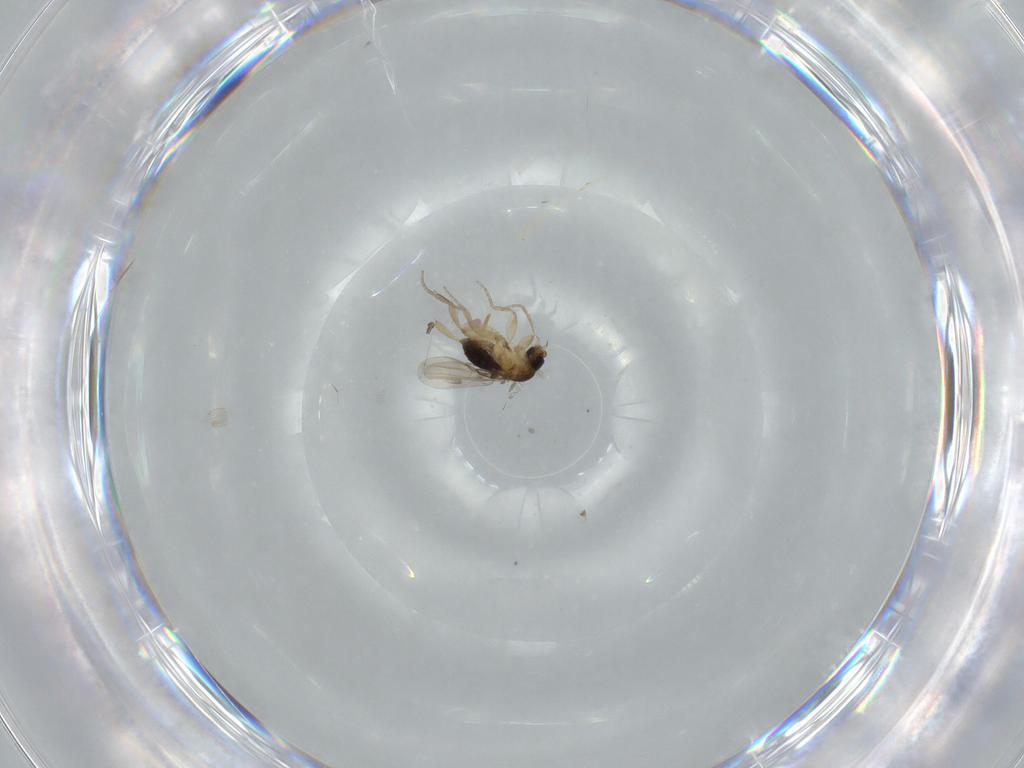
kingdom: Animalia
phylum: Arthropoda
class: Insecta
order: Diptera
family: Phoridae
